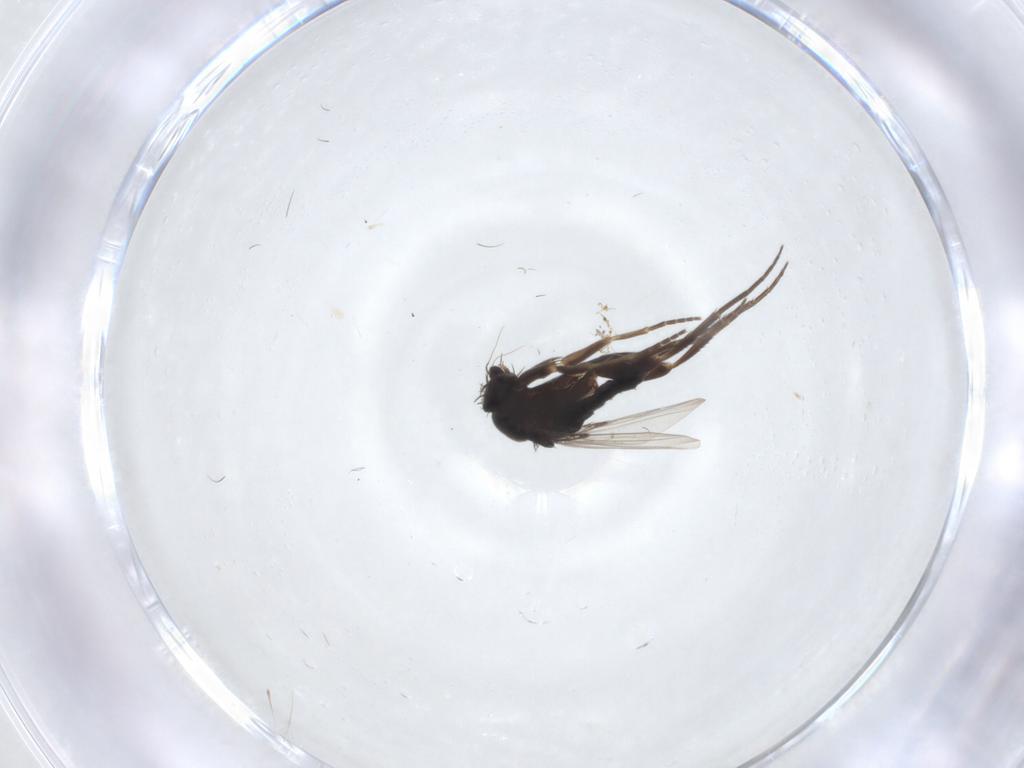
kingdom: Animalia
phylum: Arthropoda
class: Insecta
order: Diptera
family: Phoridae
